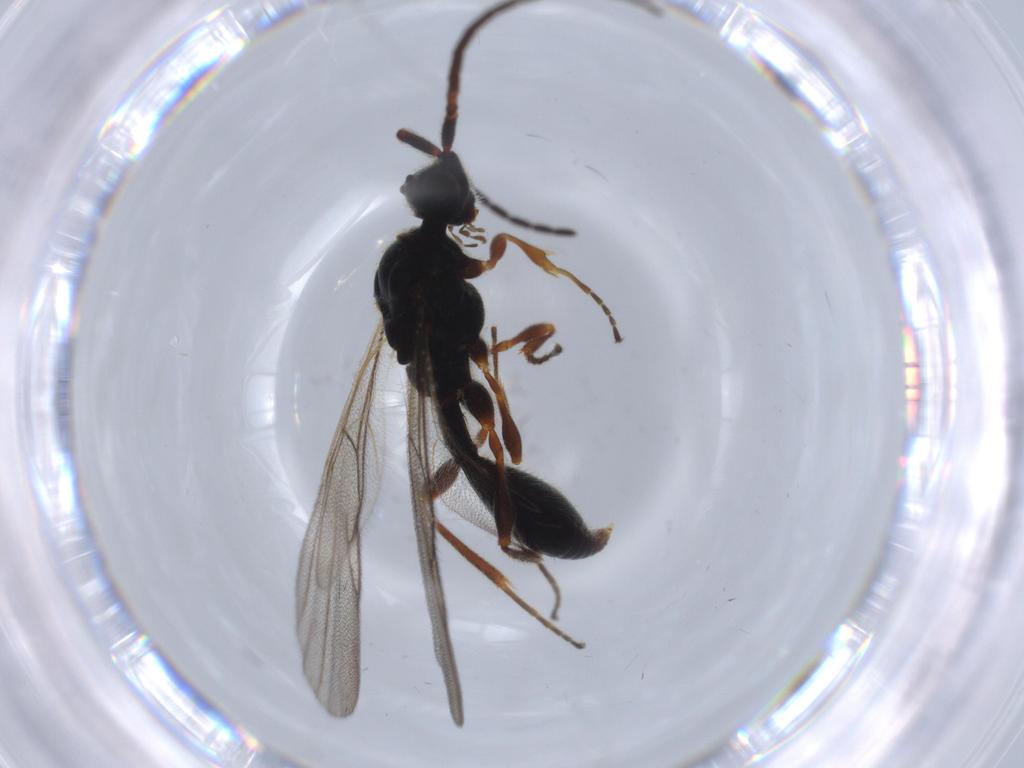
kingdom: Animalia
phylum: Arthropoda
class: Insecta
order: Hymenoptera
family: Diapriidae
